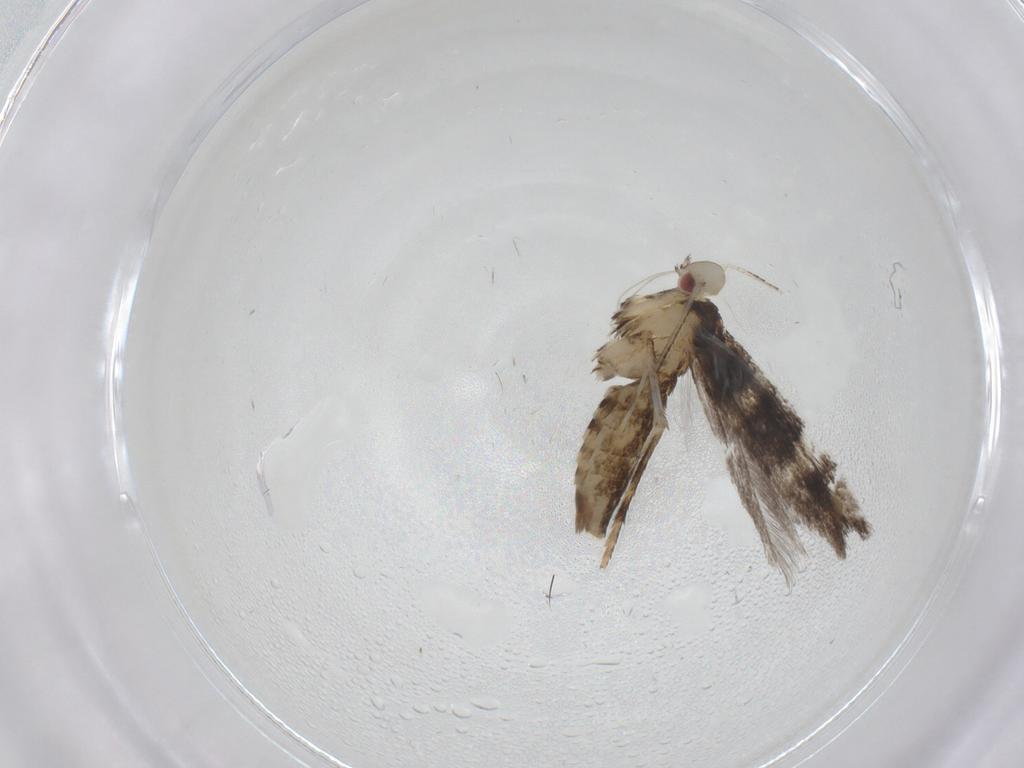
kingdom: Animalia
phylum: Arthropoda
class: Insecta
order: Lepidoptera
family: Gracillariidae
